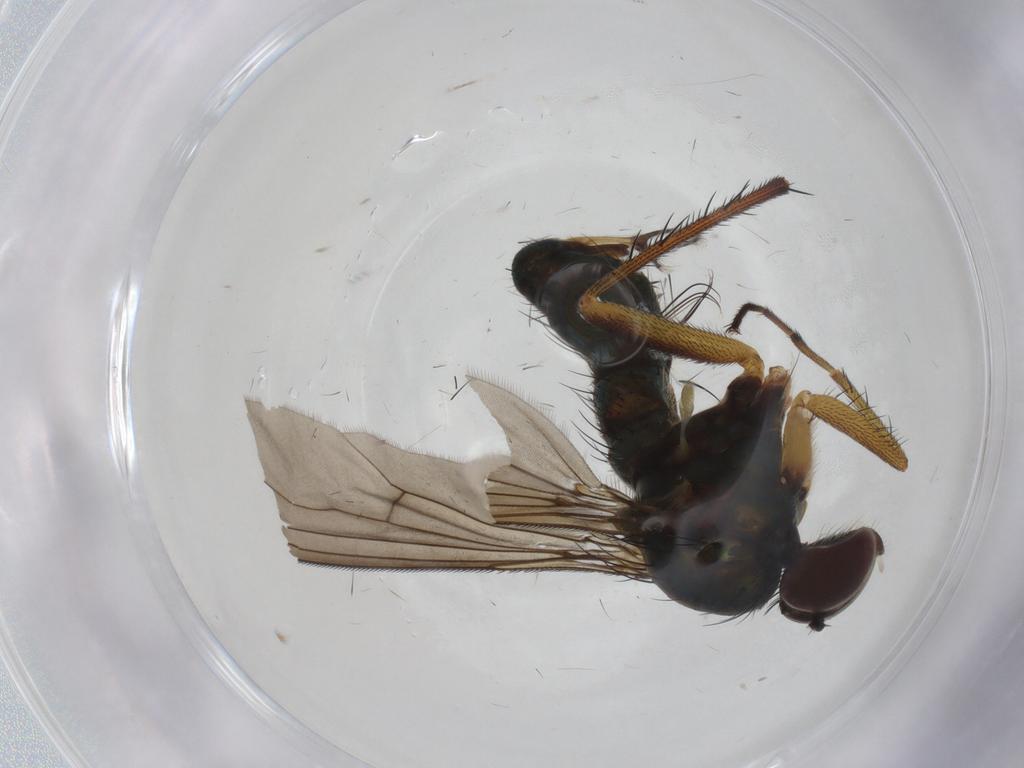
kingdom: Animalia
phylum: Arthropoda
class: Insecta
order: Diptera
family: Dolichopodidae
